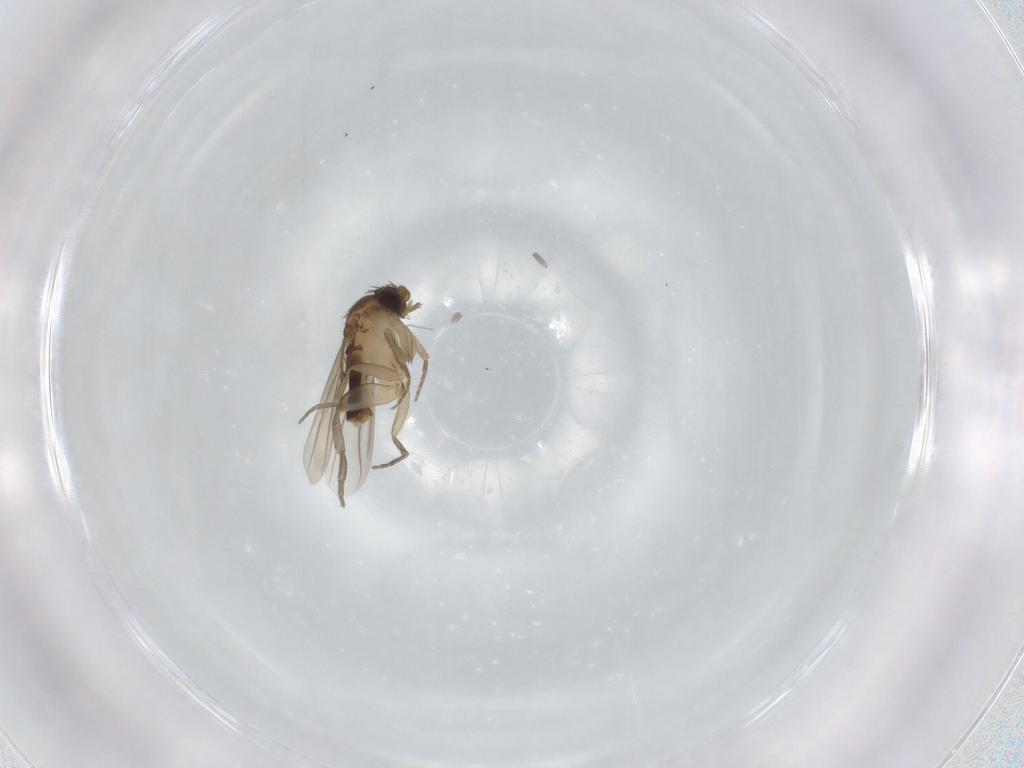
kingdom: Animalia
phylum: Arthropoda
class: Insecta
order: Diptera
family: Phoridae
